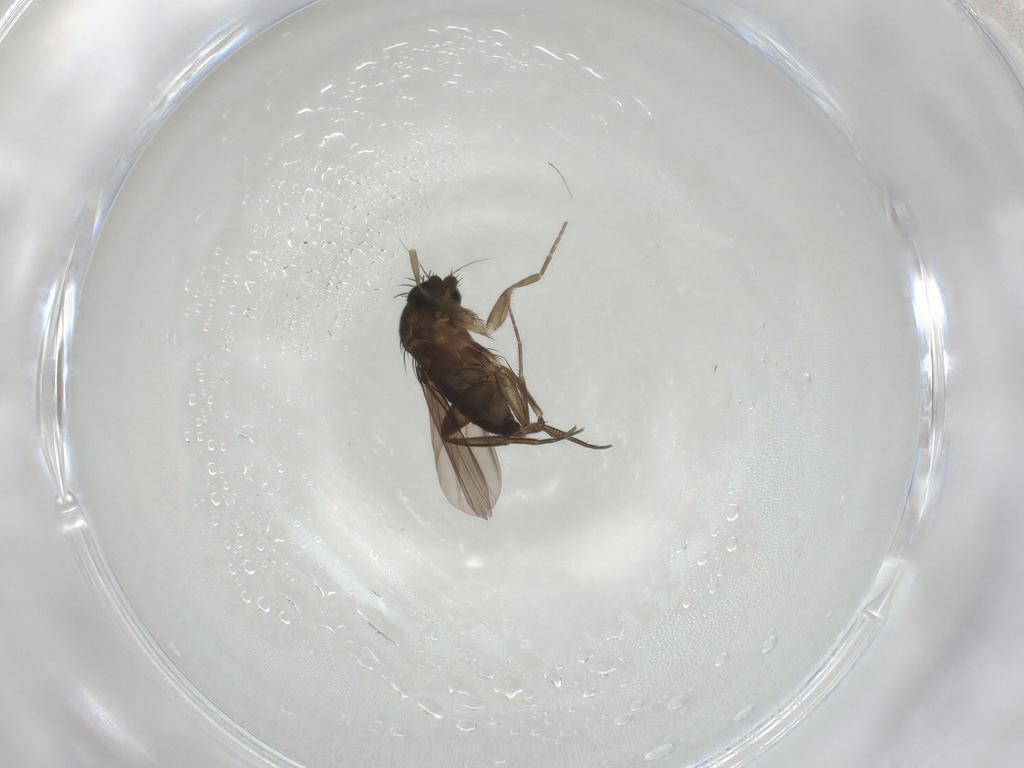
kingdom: Animalia
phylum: Arthropoda
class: Insecta
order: Diptera
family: Phoridae
